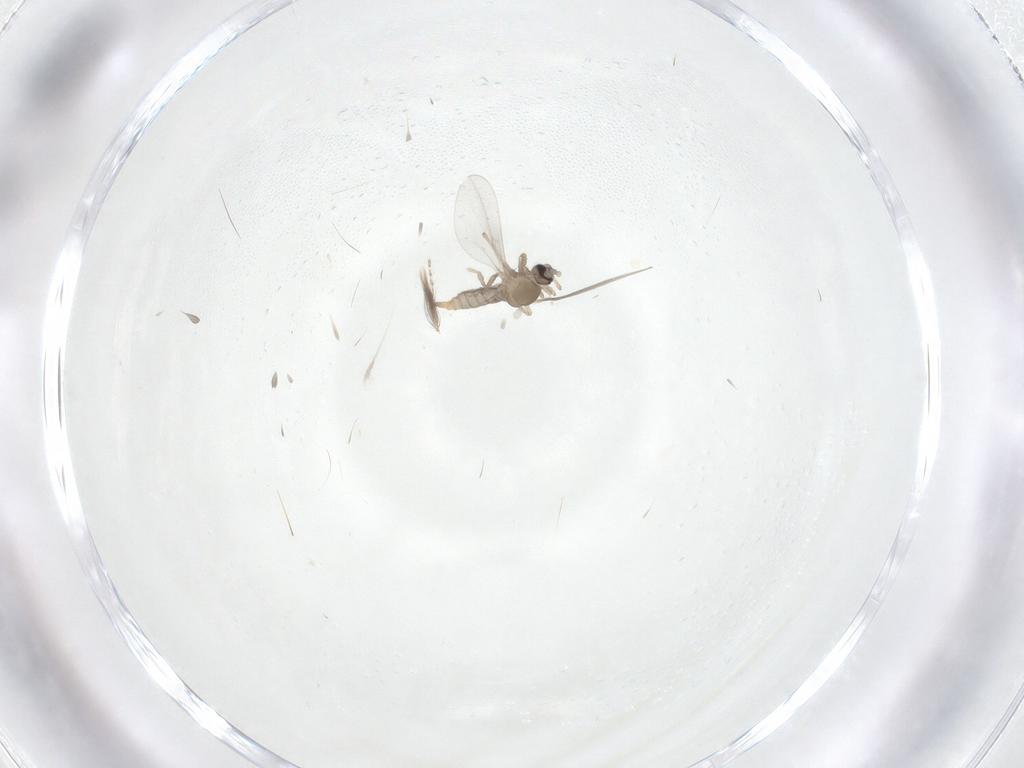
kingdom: Animalia
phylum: Arthropoda
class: Insecta
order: Diptera
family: Cecidomyiidae
